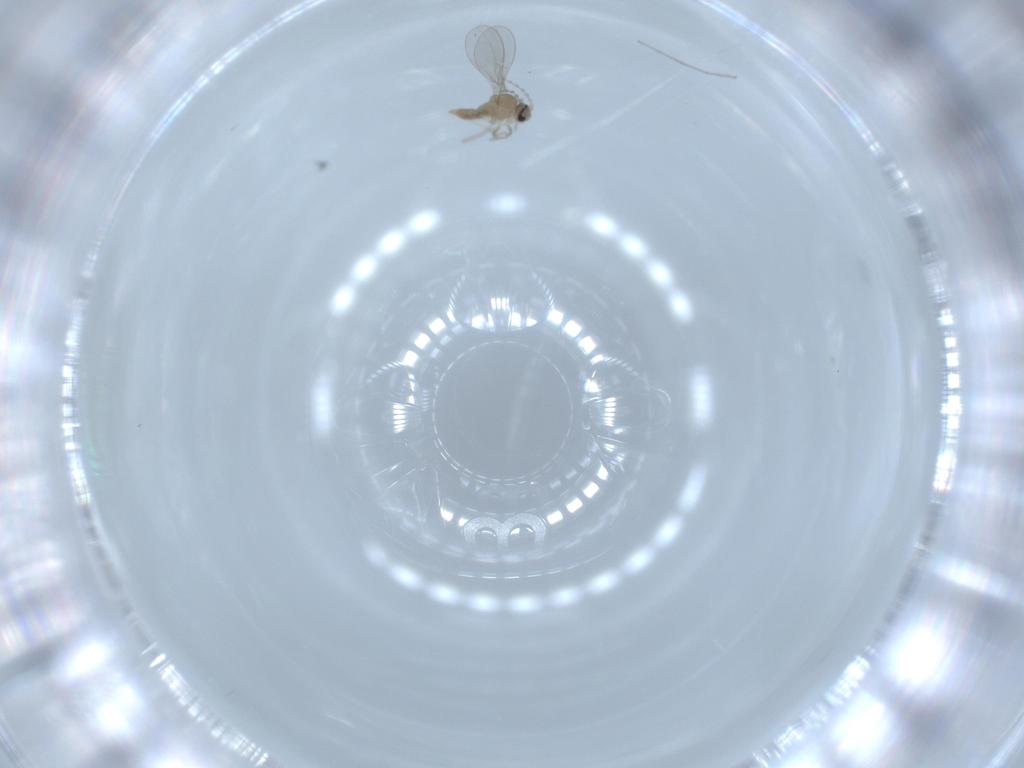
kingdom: Animalia
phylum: Arthropoda
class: Insecta
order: Diptera
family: Cecidomyiidae
